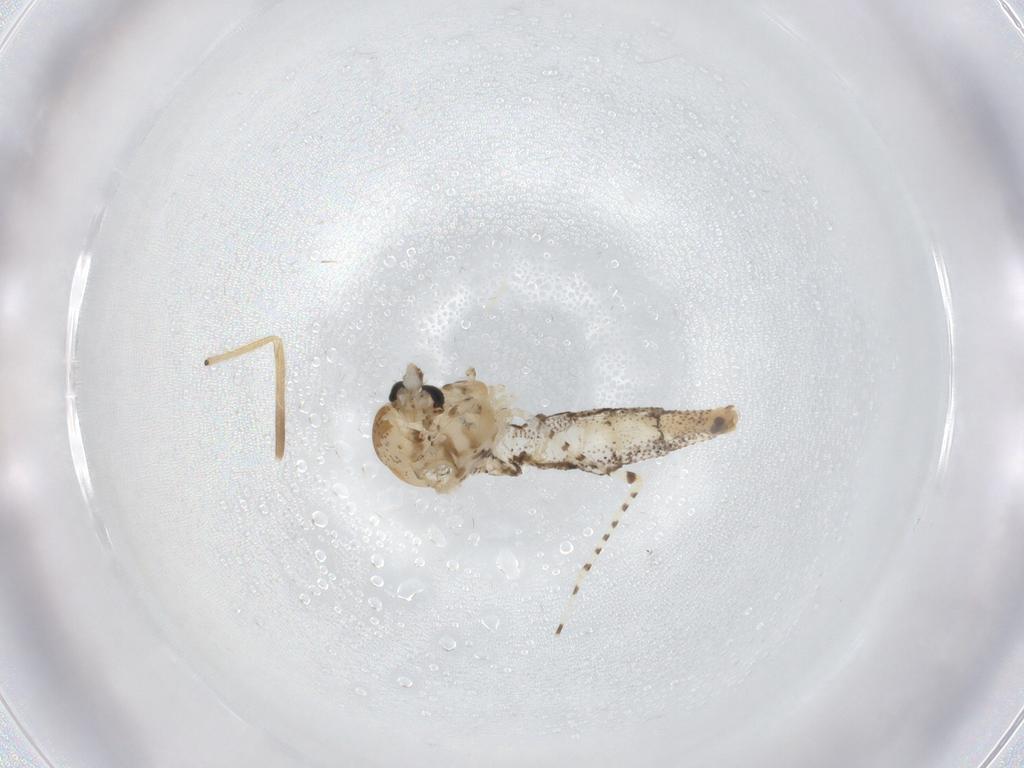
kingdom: Animalia
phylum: Arthropoda
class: Insecta
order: Diptera
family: Chaoboridae
